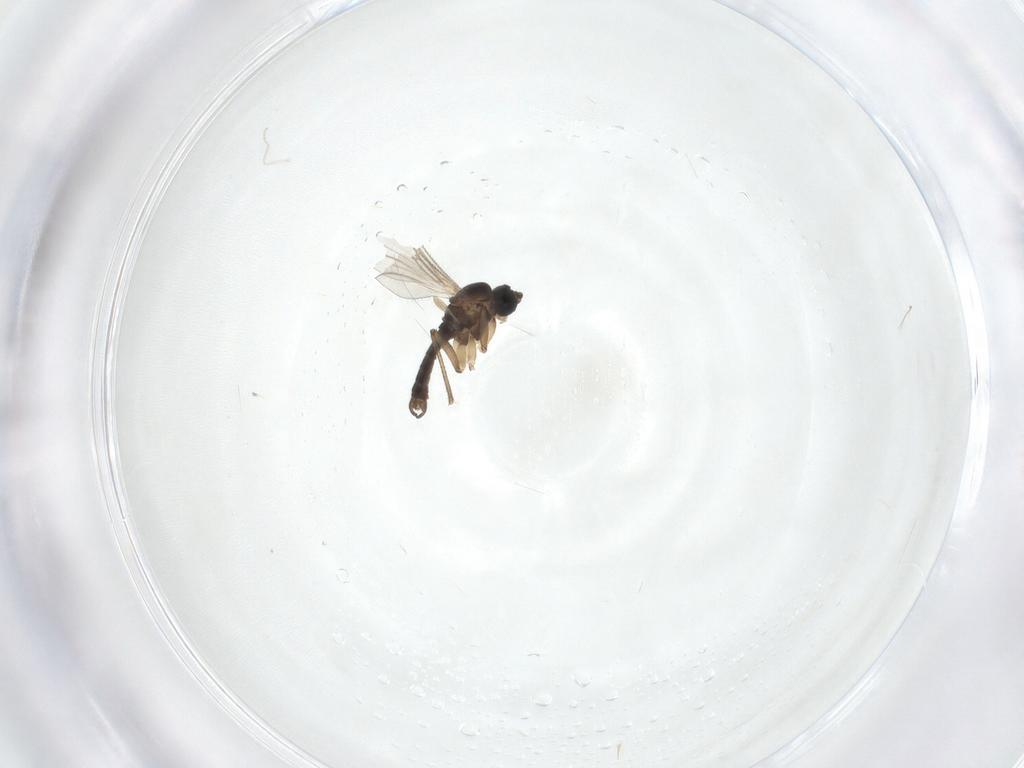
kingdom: Animalia
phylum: Arthropoda
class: Insecta
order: Diptera
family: Cecidomyiidae
